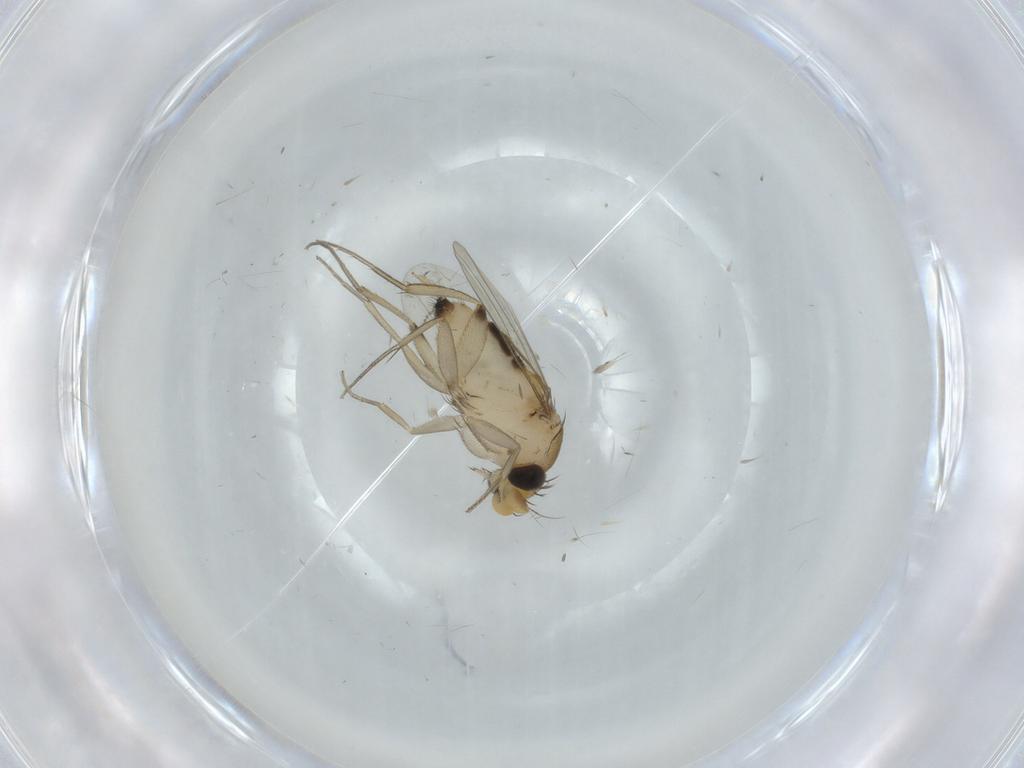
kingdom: Animalia
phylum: Arthropoda
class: Insecta
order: Diptera
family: Phoridae
